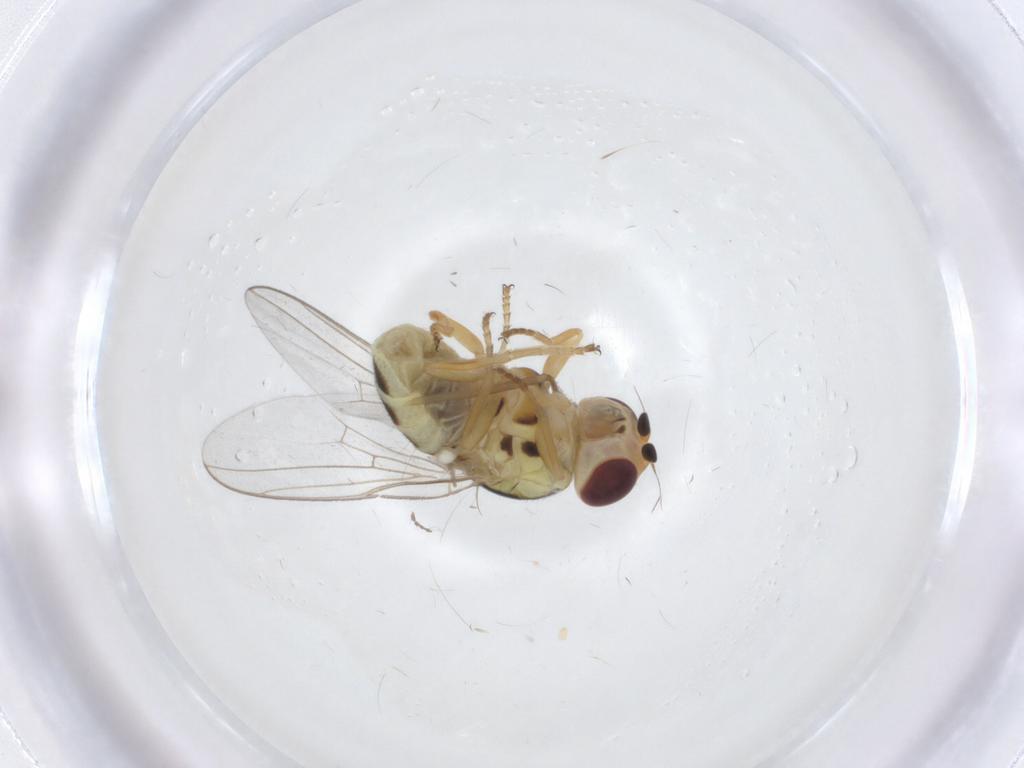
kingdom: Animalia
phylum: Arthropoda
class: Insecta
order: Diptera
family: Chloropidae
